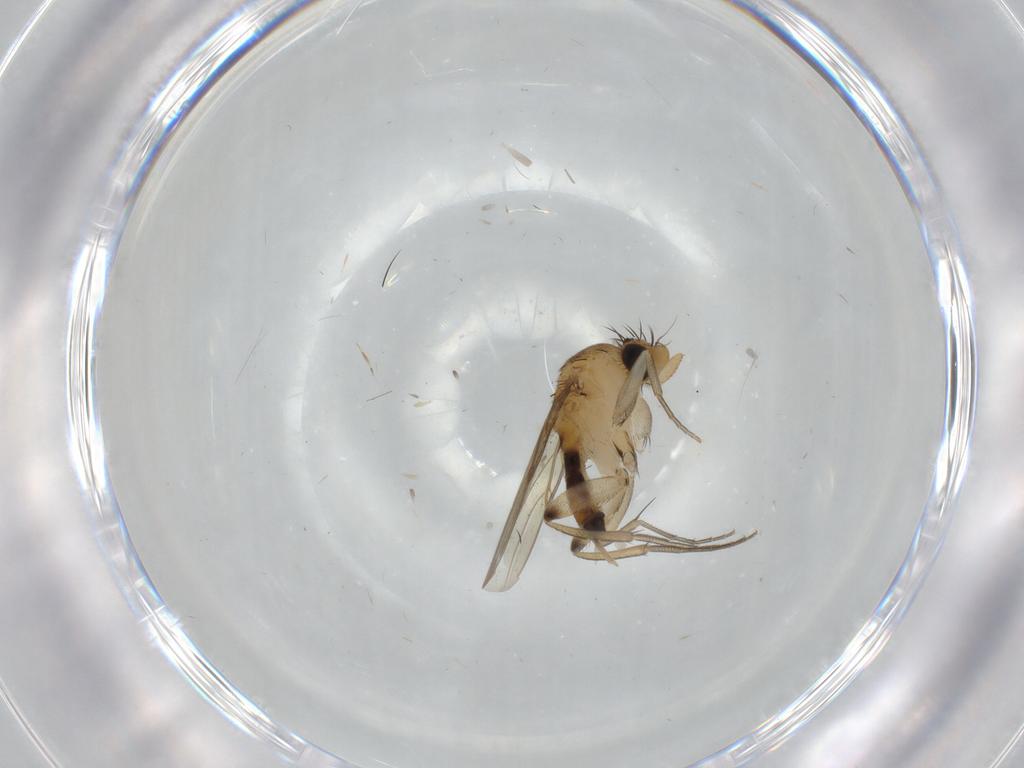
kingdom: Animalia
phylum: Arthropoda
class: Insecta
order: Diptera
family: Phoridae
